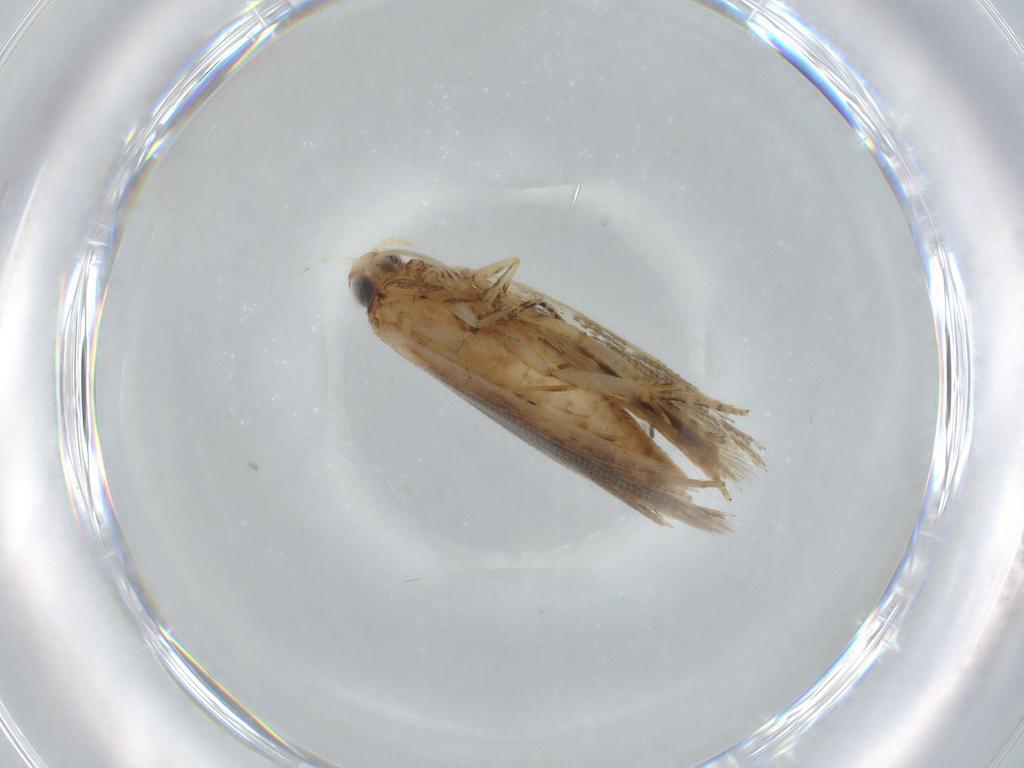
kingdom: Animalia
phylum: Arthropoda
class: Insecta
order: Lepidoptera
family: Gelechiidae
